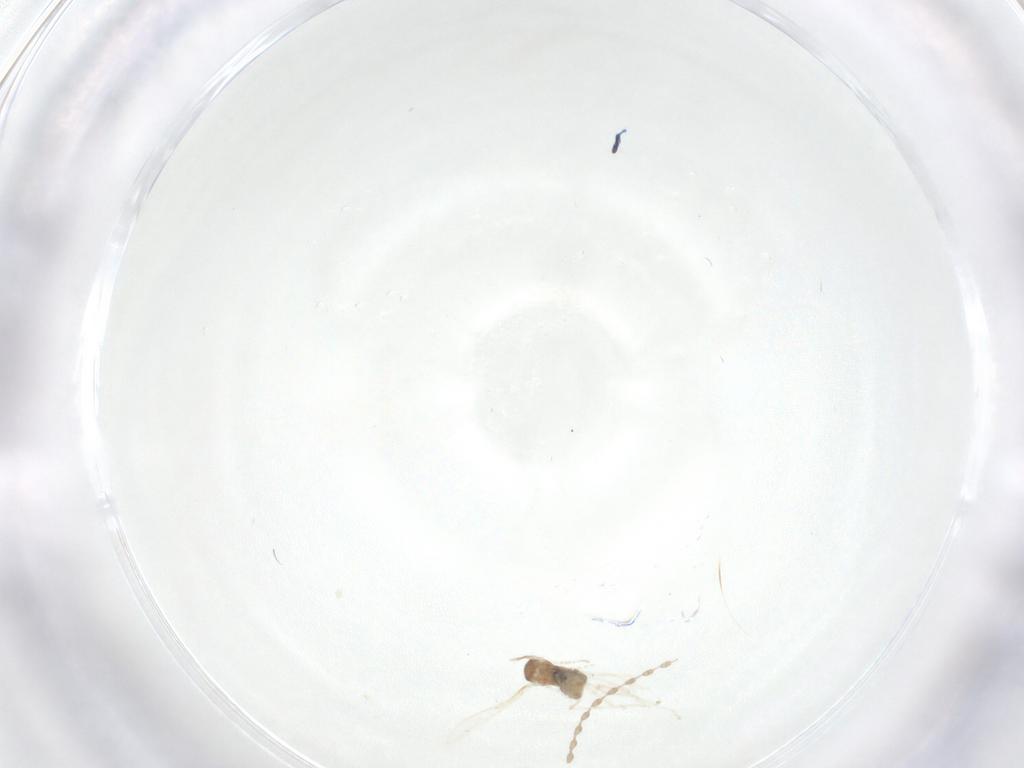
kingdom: Animalia
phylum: Arthropoda
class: Insecta
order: Diptera
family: Cecidomyiidae
